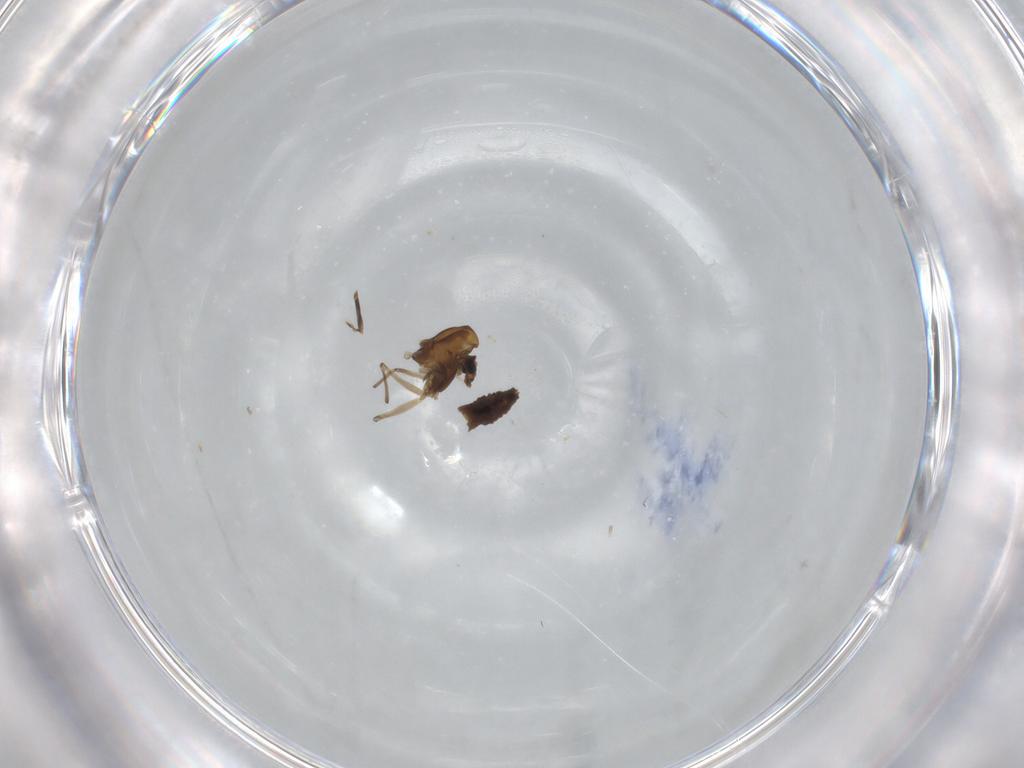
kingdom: Animalia
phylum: Arthropoda
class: Insecta
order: Diptera
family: Chironomidae
